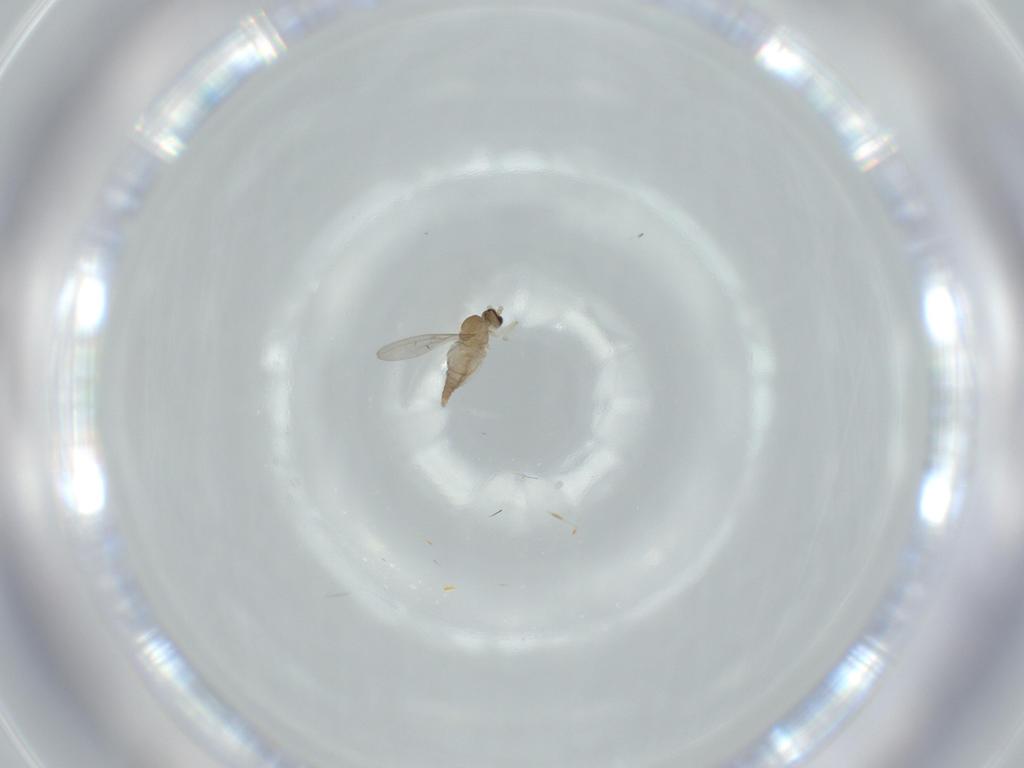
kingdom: Animalia
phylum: Arthropoda
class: Insecta
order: Diptera
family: Cecidomyiidae
